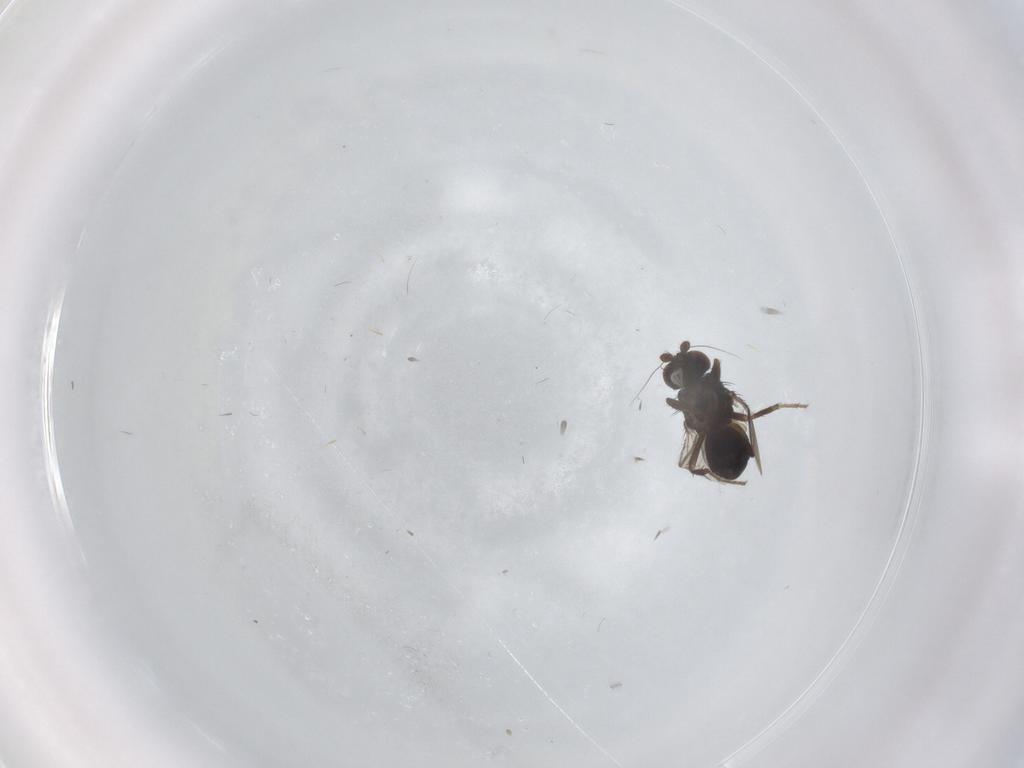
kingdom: Animalia
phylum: Arthropoda
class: Insecta
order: Diptera
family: Sphaeroceridae
